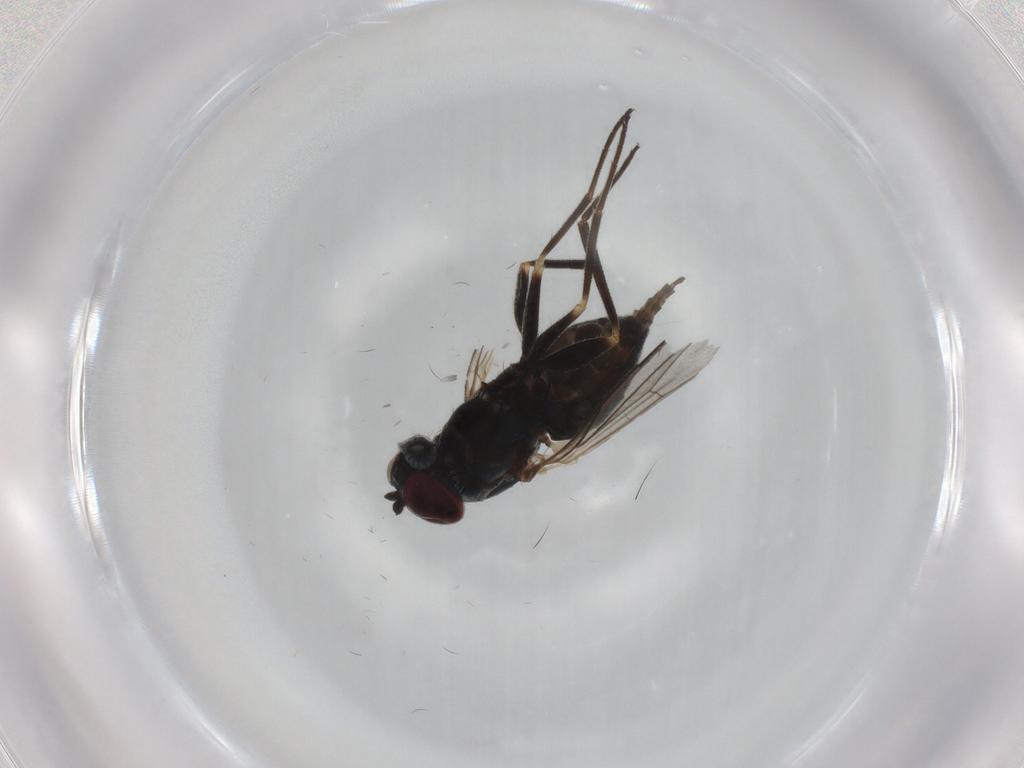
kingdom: Animalia
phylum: Arthropoda
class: Insecta
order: Diptera
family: Dolichopodidae
